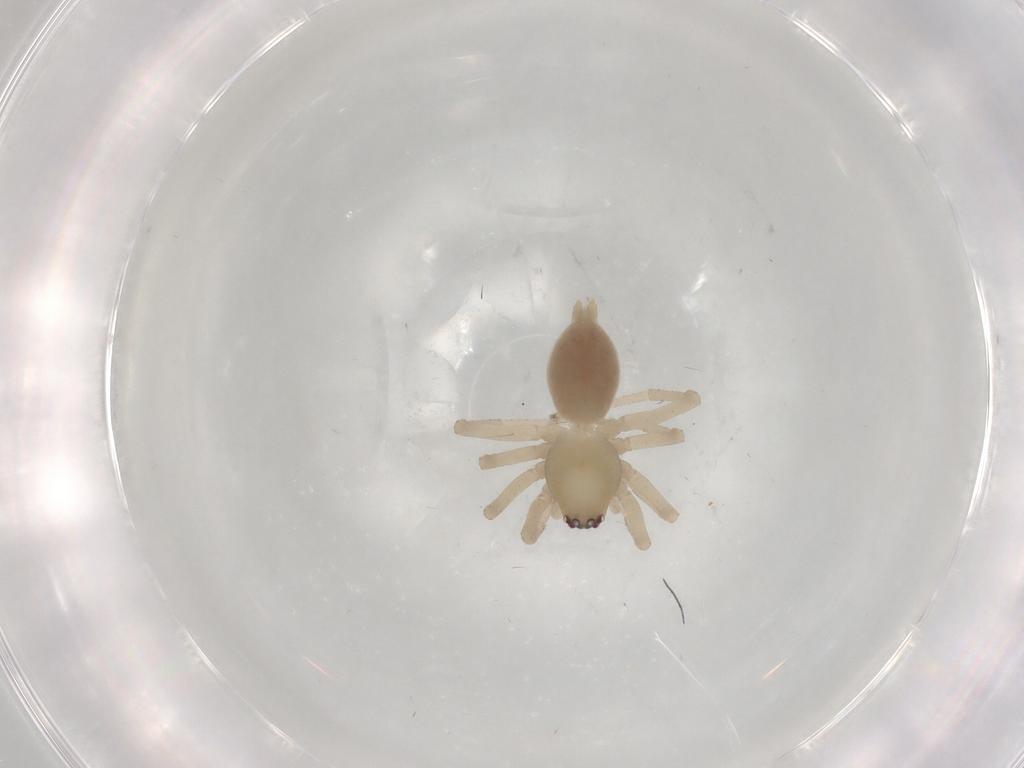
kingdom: Animalia
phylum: Arthropoda
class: Arachnida
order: Araneae
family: Anyphaenidae
